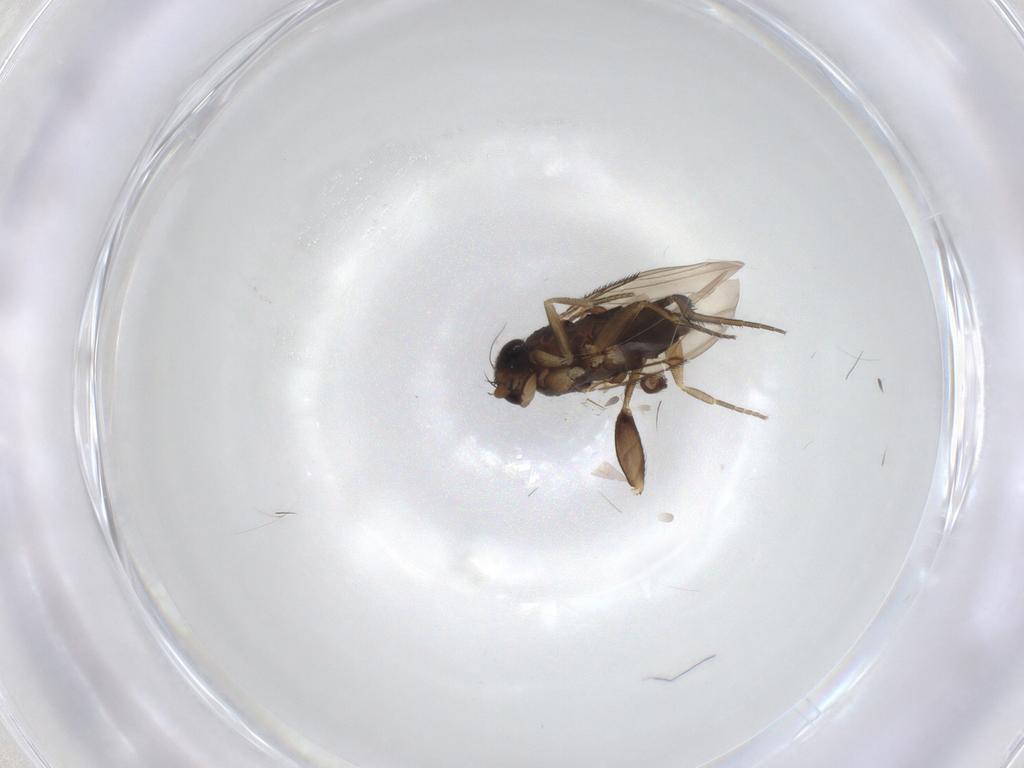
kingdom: Animalia
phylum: Arthropoda
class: Insecta
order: Diptera
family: Phoridae
